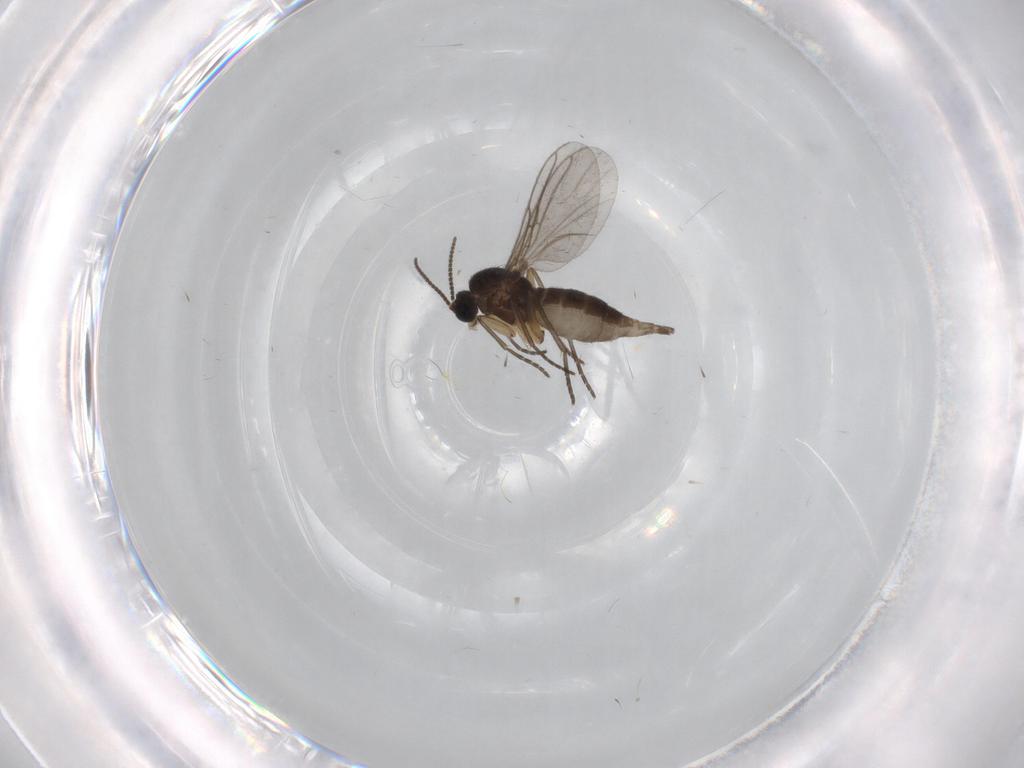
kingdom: Animalia
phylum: Arthropoda
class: Insecta
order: Diptera
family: Sciaridae
